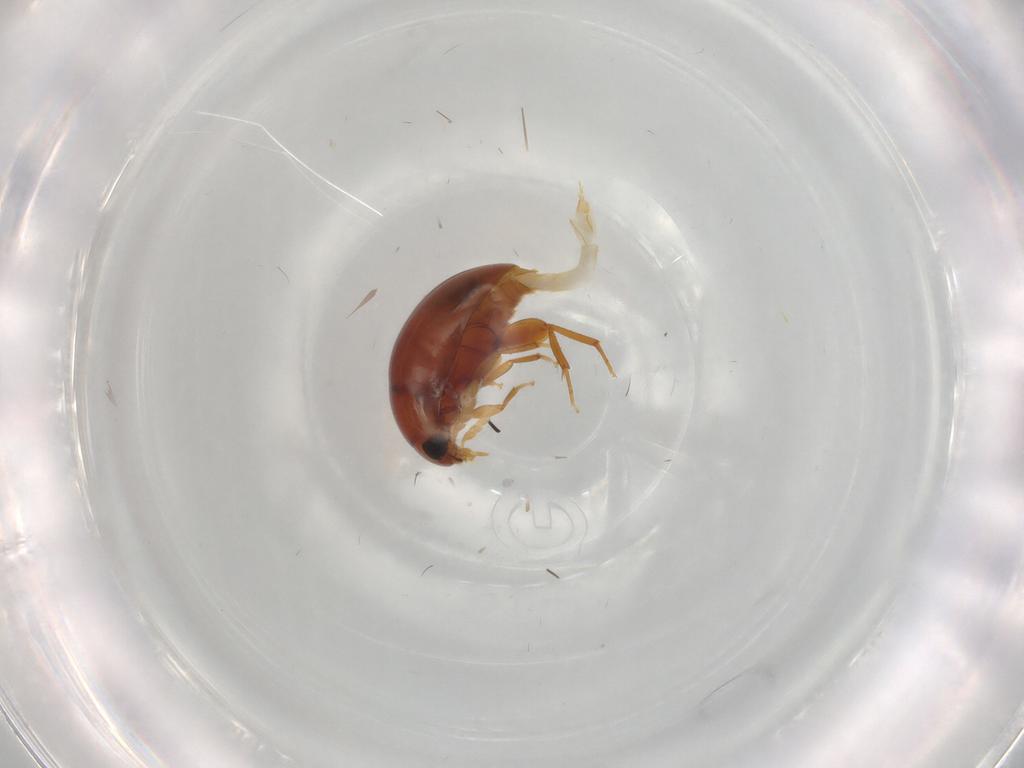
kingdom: Animalia
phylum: Arthropoda
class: Insecta
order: Coleoptera
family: Phalacridae
